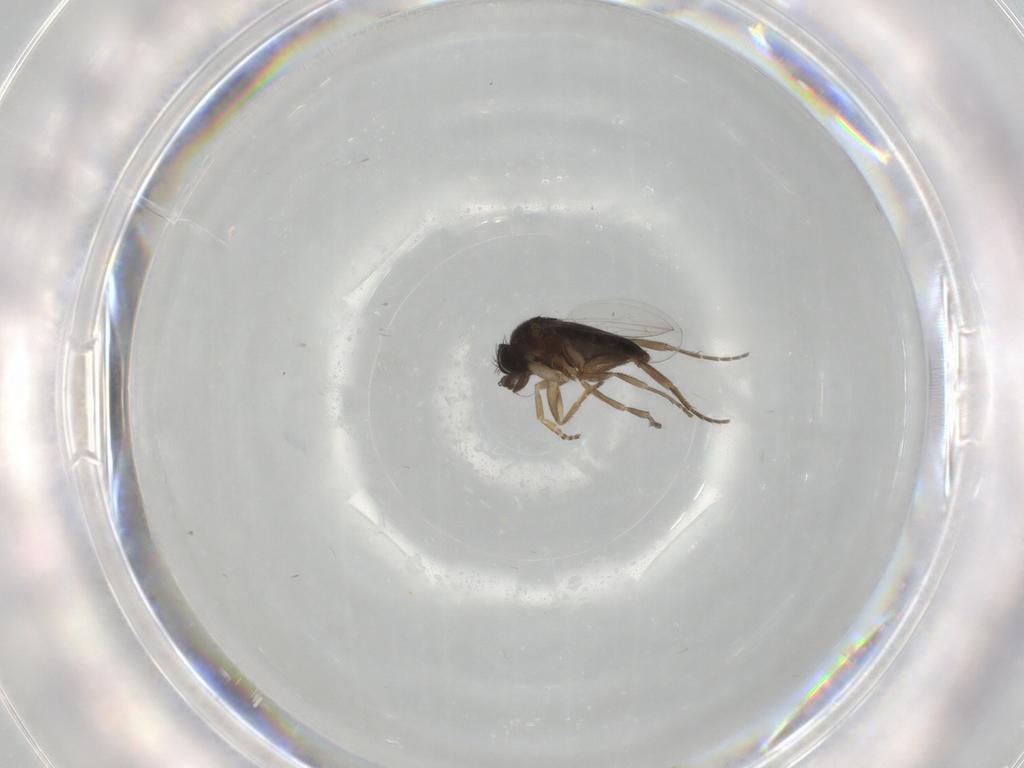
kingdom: Animalia
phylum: Arthropoda
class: Insecta
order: Diptera
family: Phoridae
